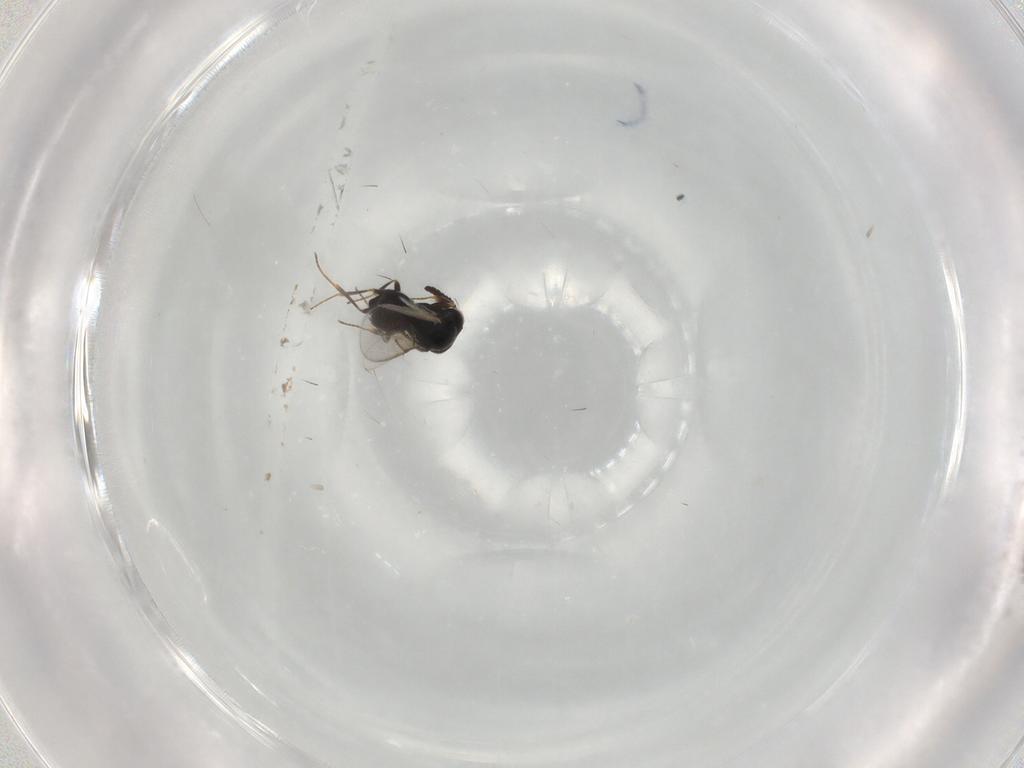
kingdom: Animalia
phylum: Arthropoda
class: Insecta
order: Hymenoptera
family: Scelionidae
